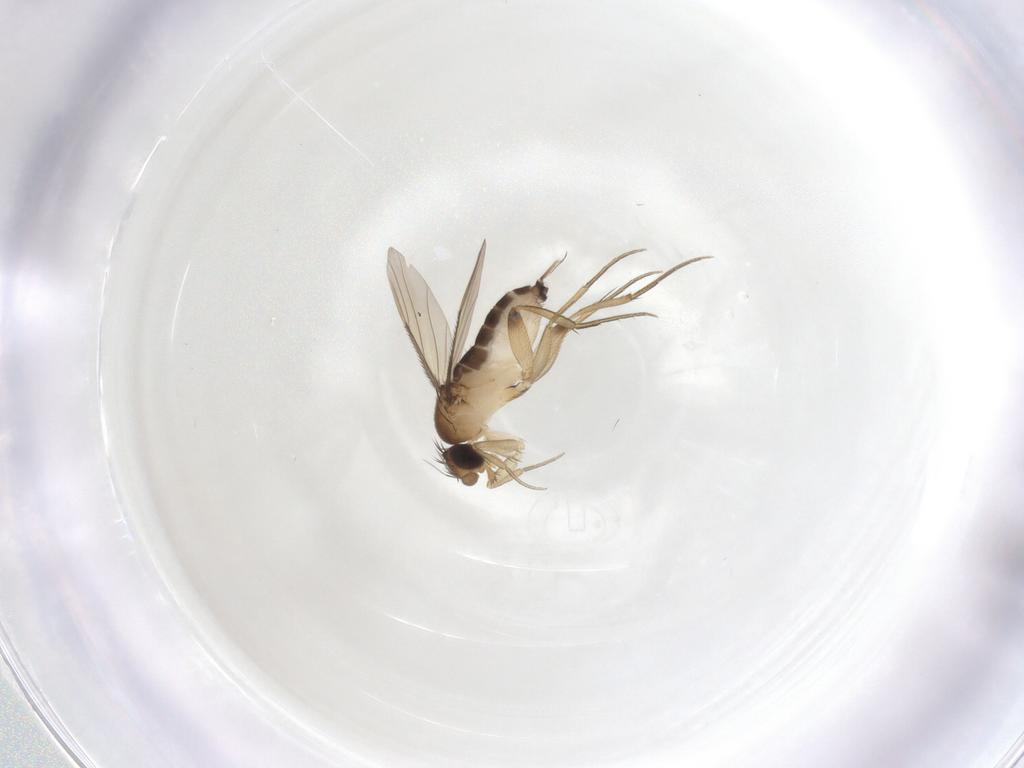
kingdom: Animalia
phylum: Arthropoda
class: Insecta
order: Diptera
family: Phoridae
